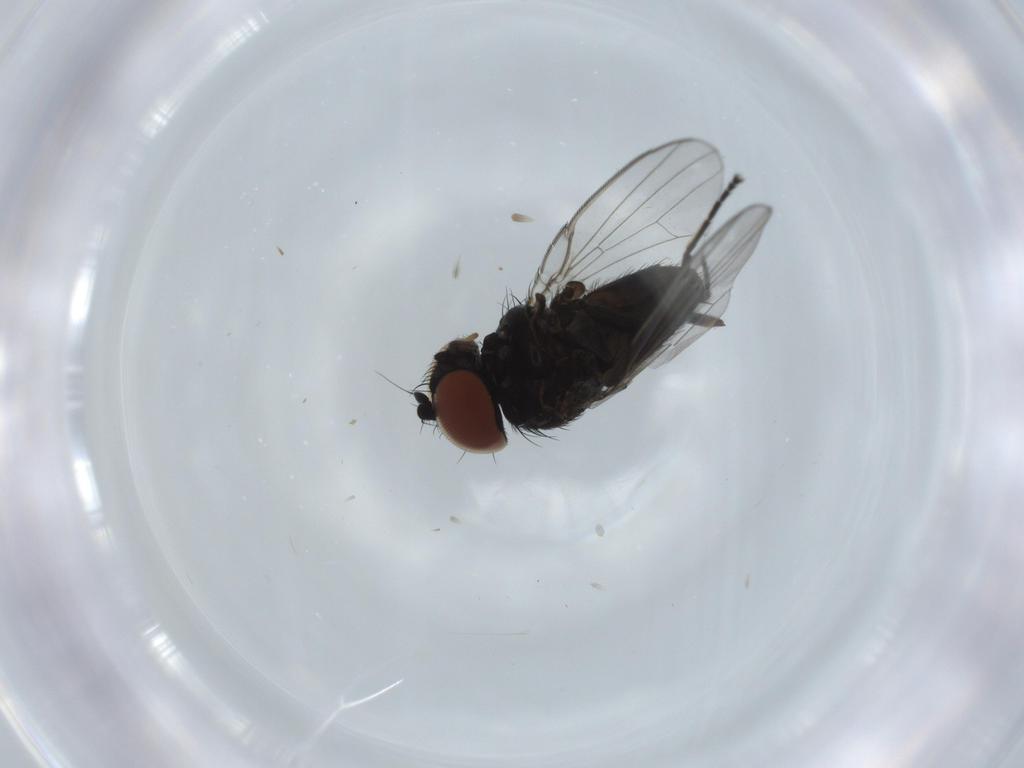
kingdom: Animalia
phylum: Arthropoda
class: Insecta
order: Diptera
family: Milichiidae
